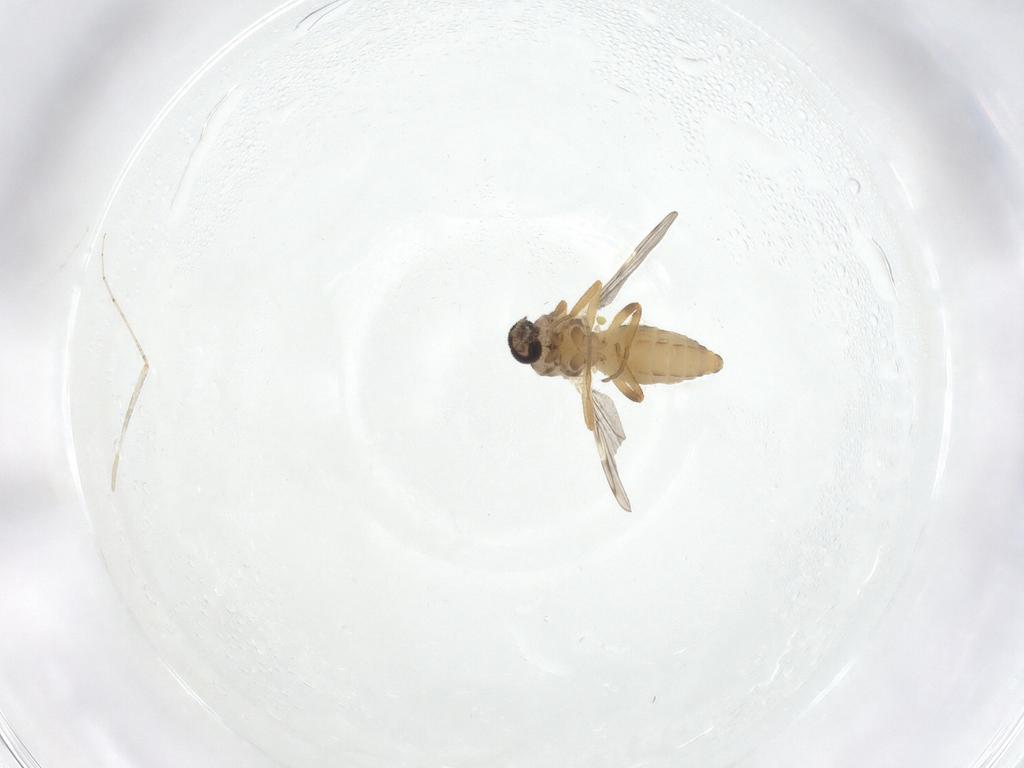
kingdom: Animalia
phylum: Arthropoda
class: Insecta
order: Diptera
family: Ceratopogonidae
